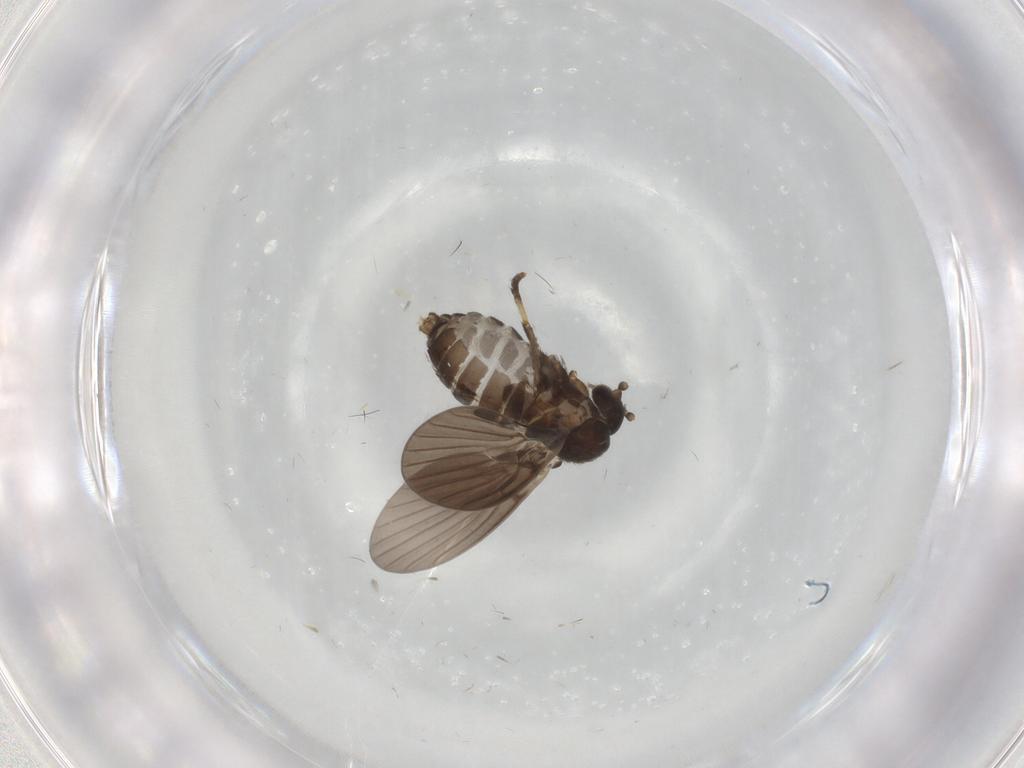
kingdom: Animalia
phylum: Arthropoda
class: Insecta
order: Diptera
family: Psychodidae
